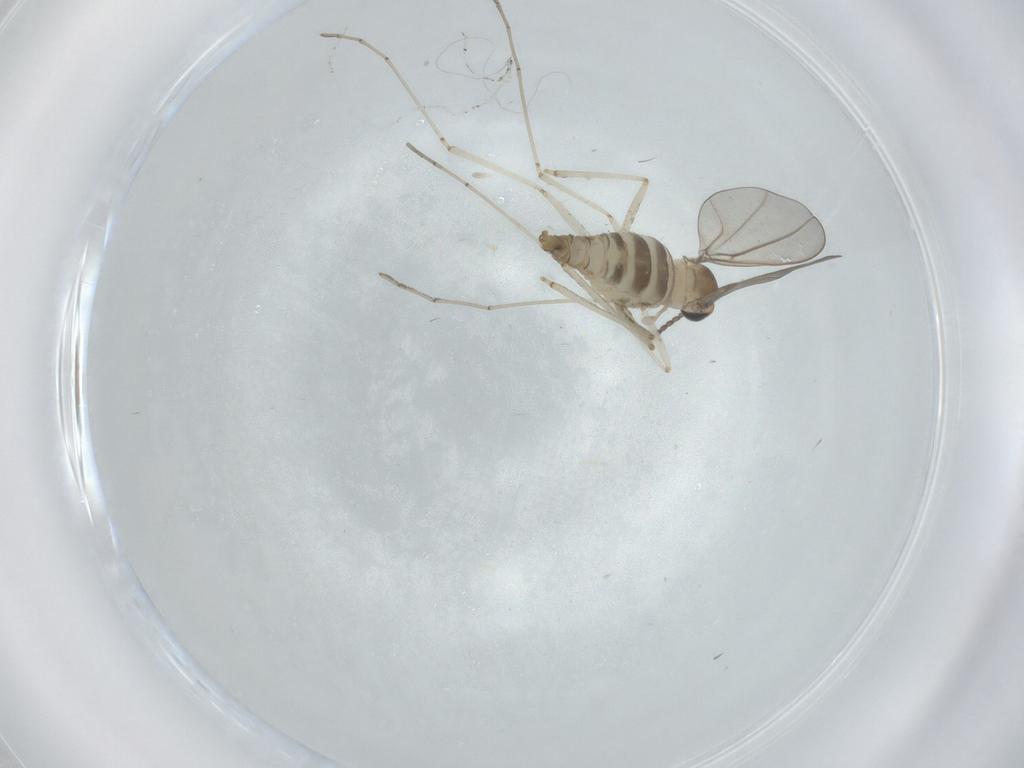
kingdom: Animalia
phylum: Arthropoda
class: Insecta
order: Diptera
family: Cecidomyiidae
